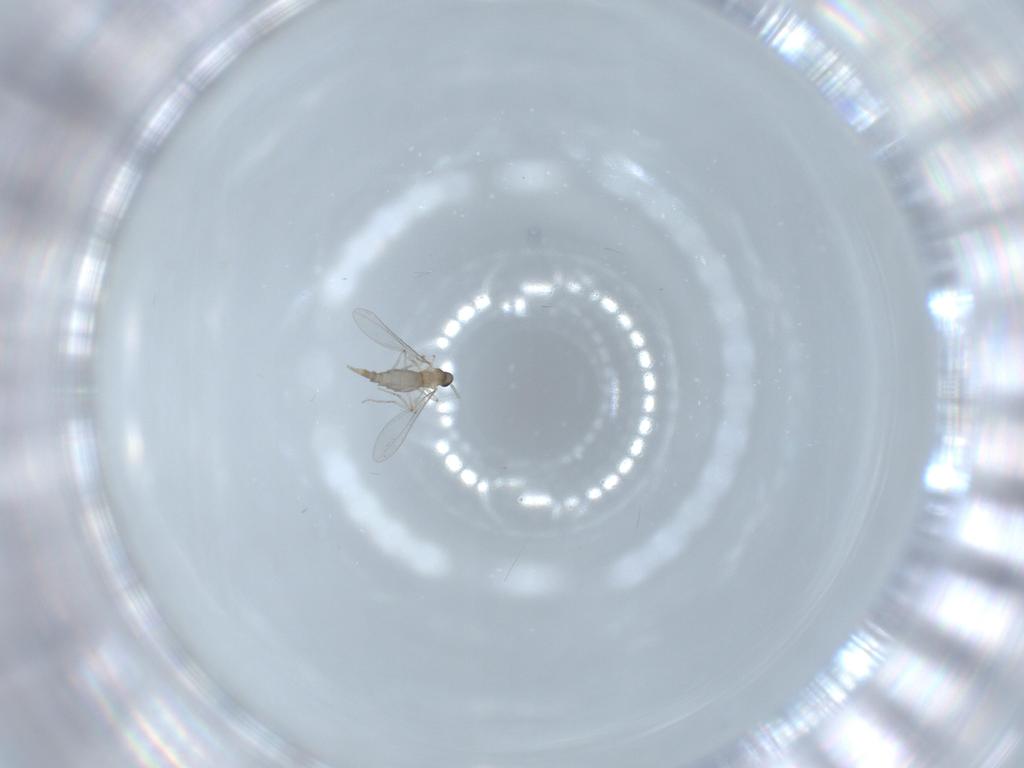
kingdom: Animalia
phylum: Arthropoda
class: Insecta
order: Diptera
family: Cecidomyiidae
